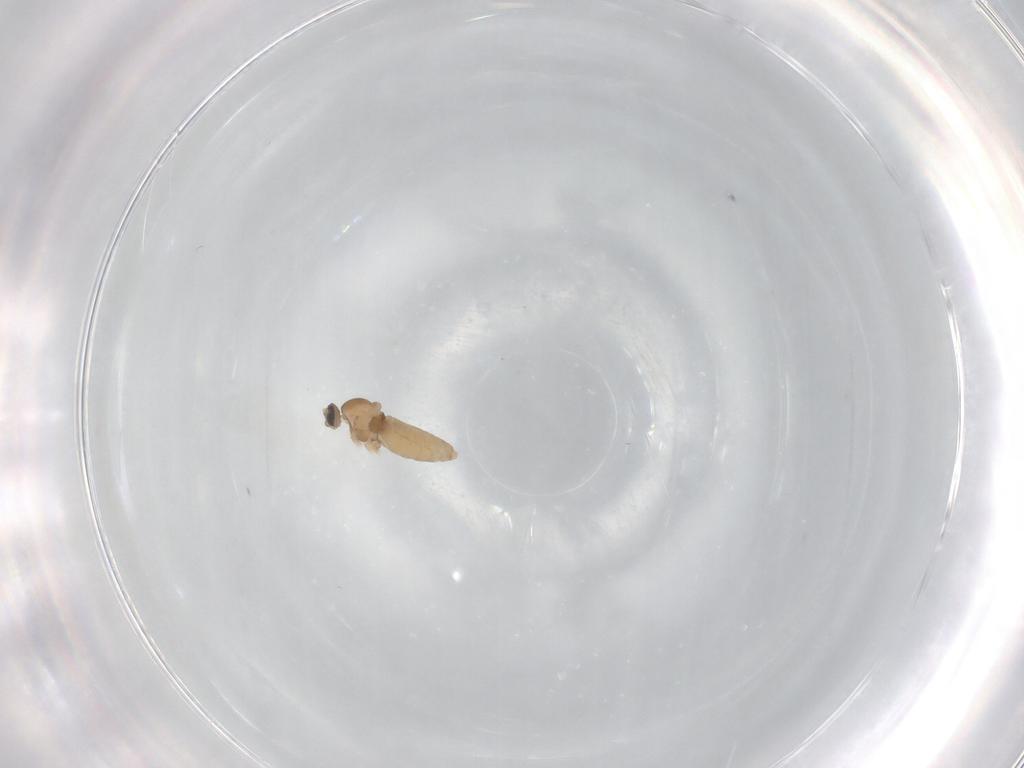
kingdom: Animalia
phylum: Arthropoda
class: Insecta
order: Diptera
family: Cecidomyiidae
